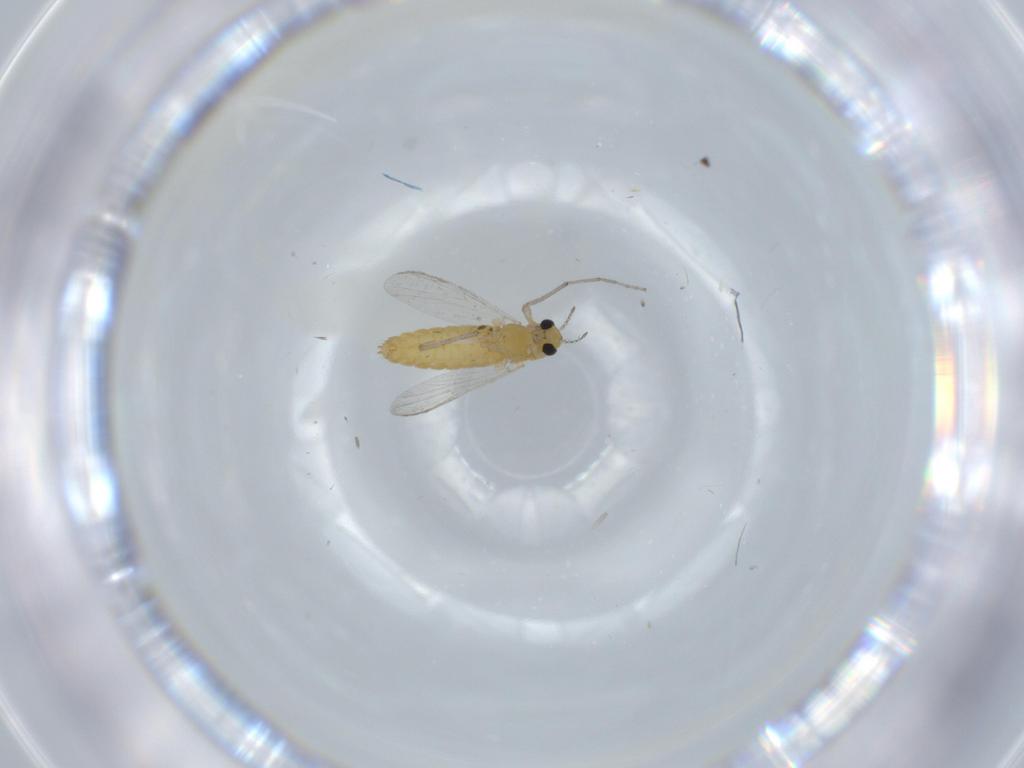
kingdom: Animalia
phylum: Arthropoda
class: Insecta
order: Diptera
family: Chironomidae
